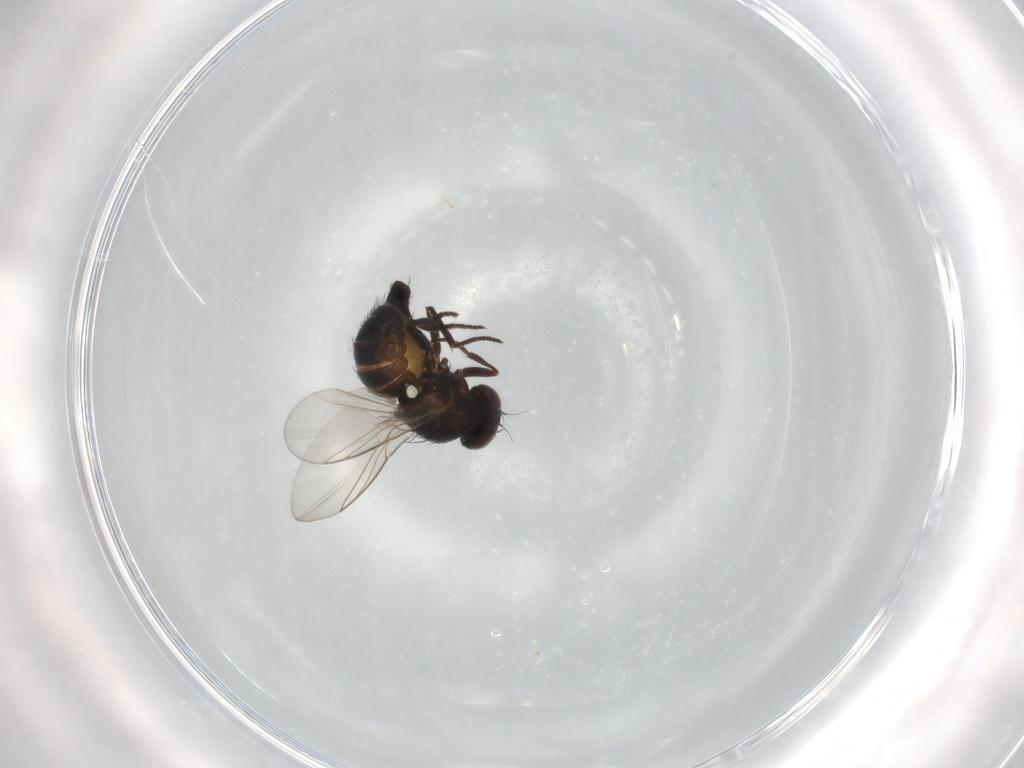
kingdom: Animalia
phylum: Arthropoda
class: Insecta
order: Diptera
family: Agromyzidae
